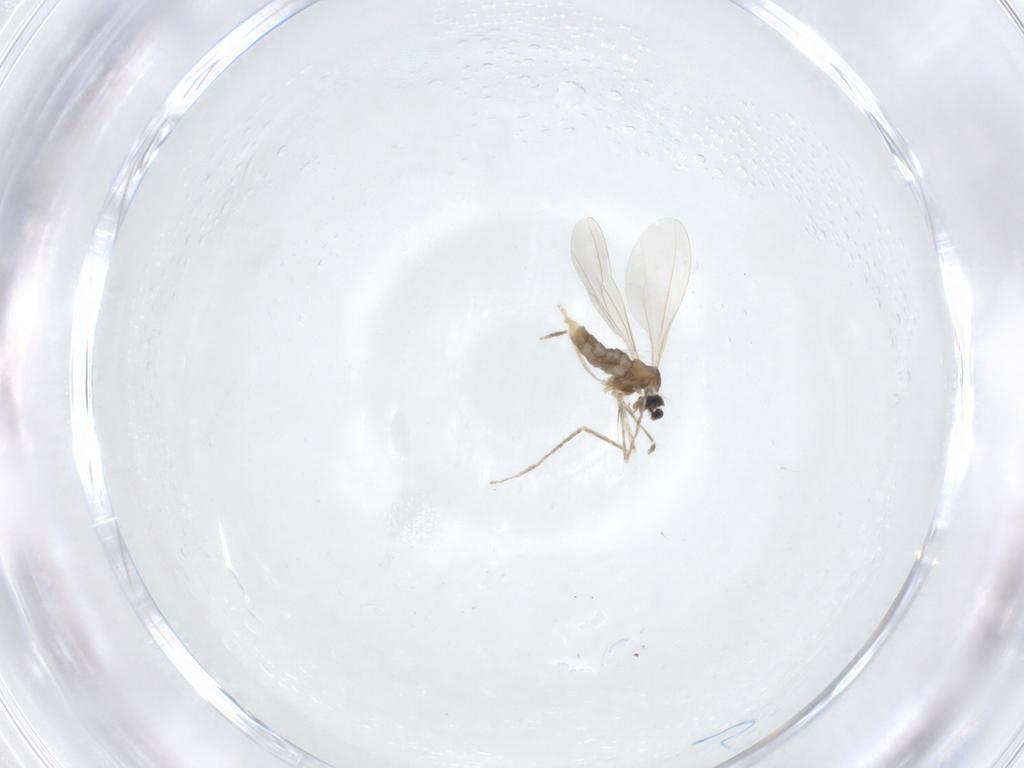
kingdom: Animalia
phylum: Arthropoda
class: Insecta
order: Diptera
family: Cecidomyiidae
